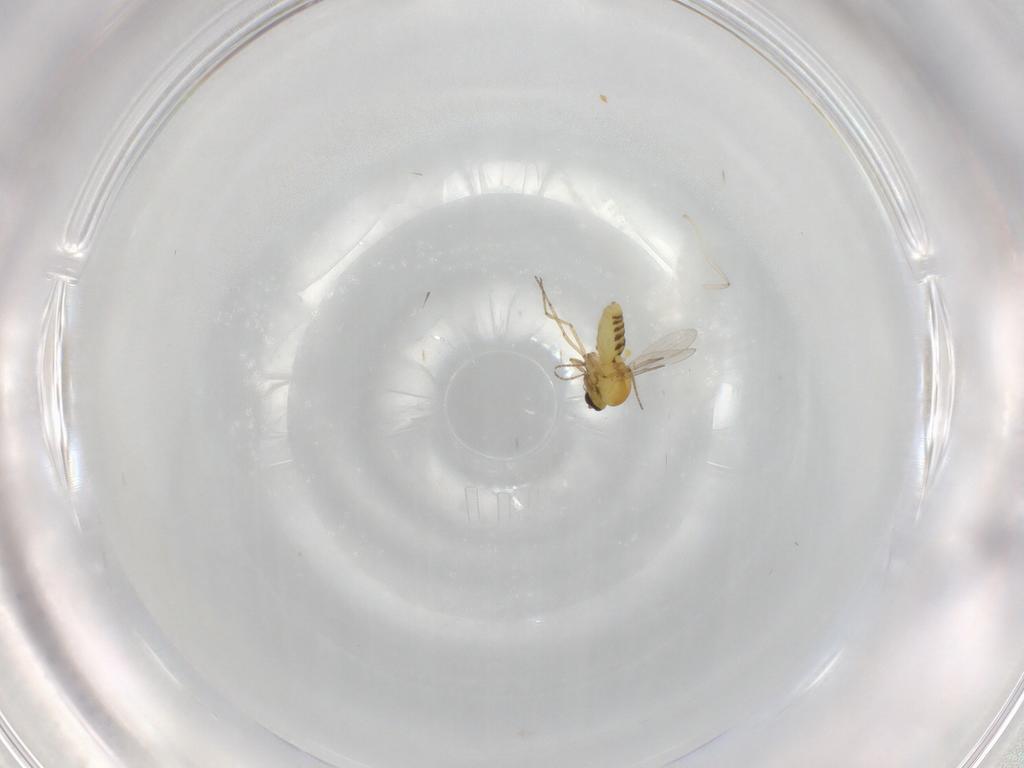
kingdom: Animalia
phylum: Arthropoda
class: Insecta
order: Diptera
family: Ceratopogonidae
